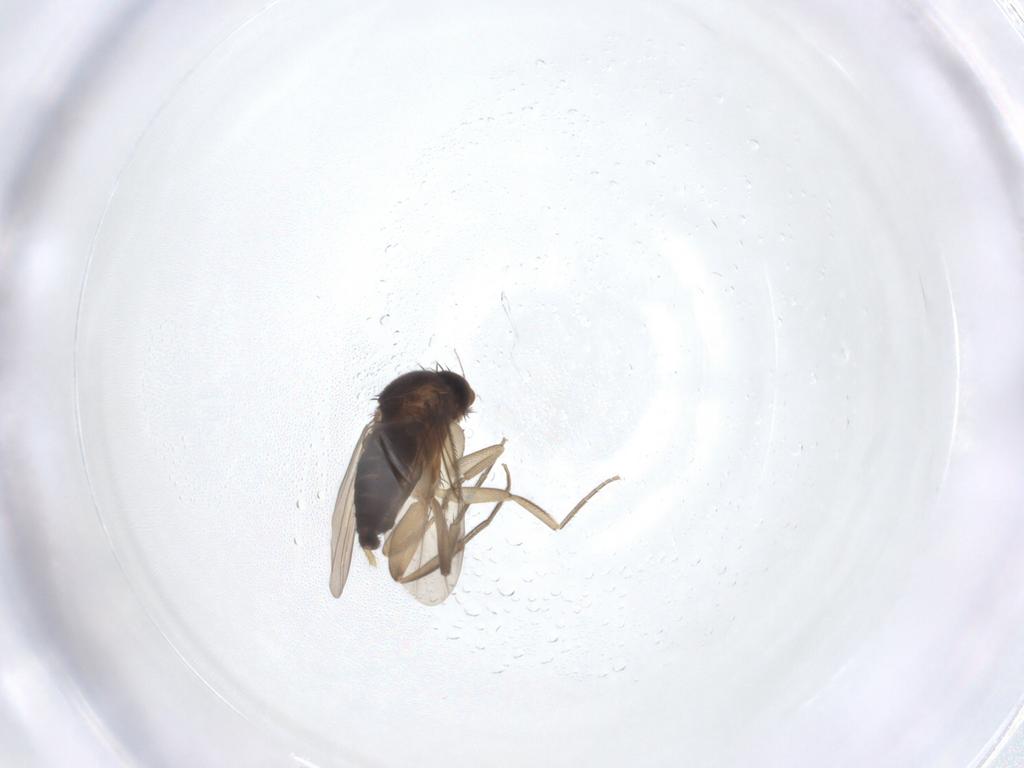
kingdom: Animalia
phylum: Arthropoda
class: Insecta
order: Diptera
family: Phoridae
